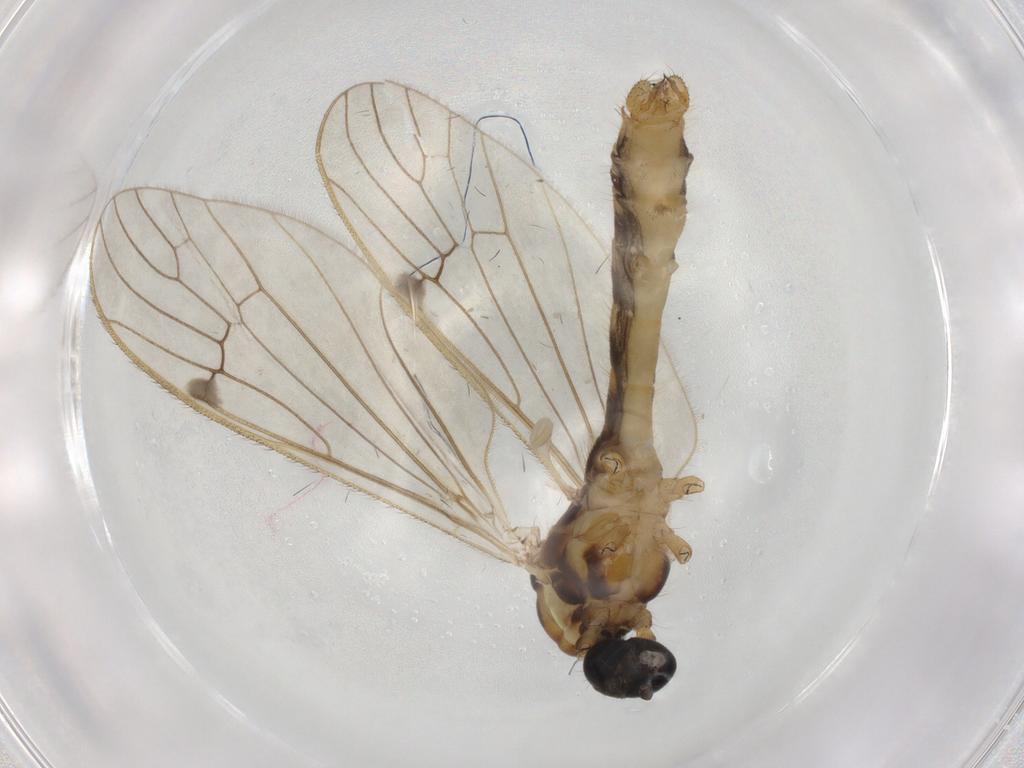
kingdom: Animalia
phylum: Arthropoda
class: Insecta
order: Diptera
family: Limoniidae
